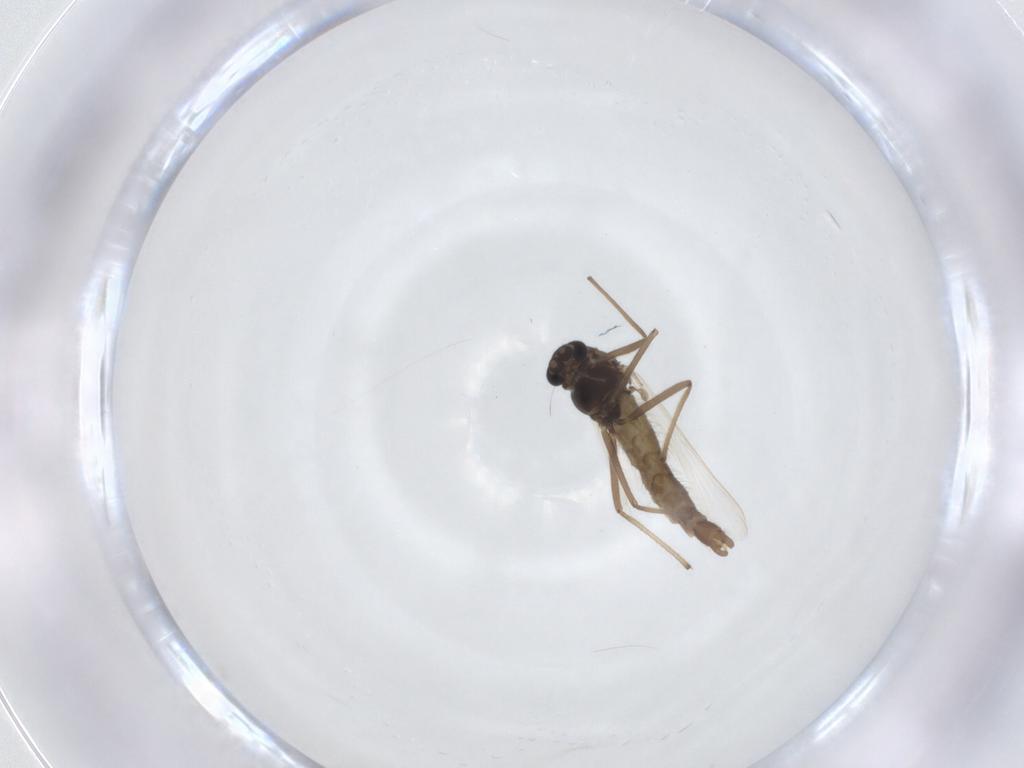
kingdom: Animalia
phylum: Arthropoda
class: Insecta
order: Diptera
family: Chironomidae
